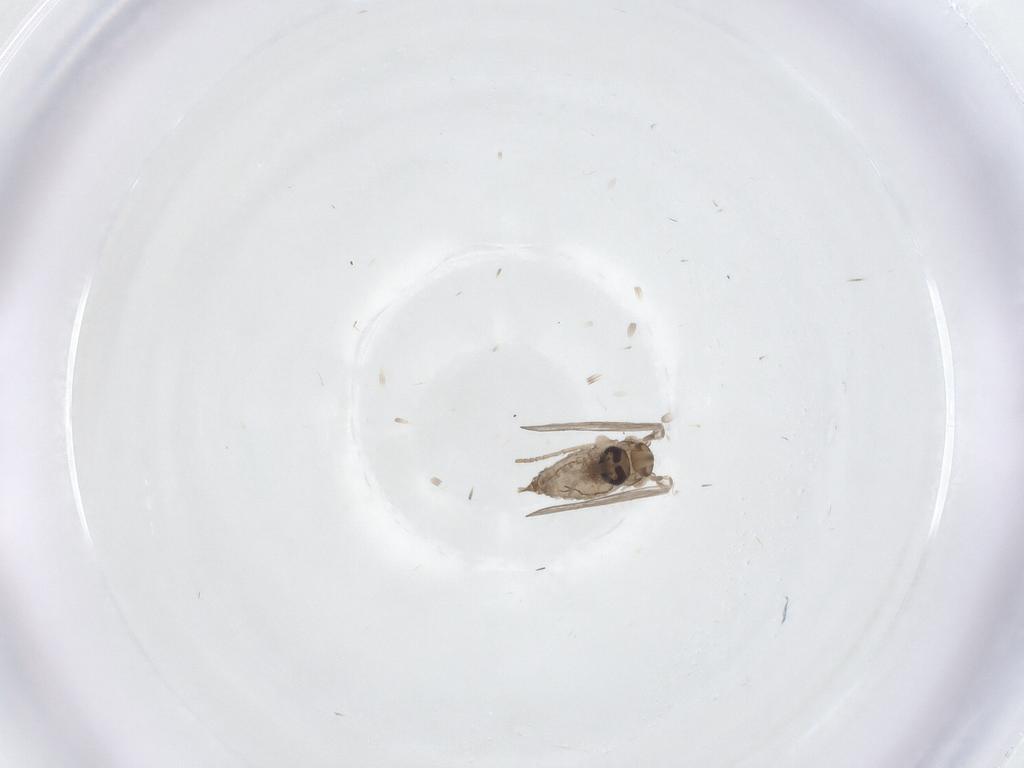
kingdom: Animalia
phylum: Arthropoda
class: Insecta
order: Diptera
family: Psychodidae
